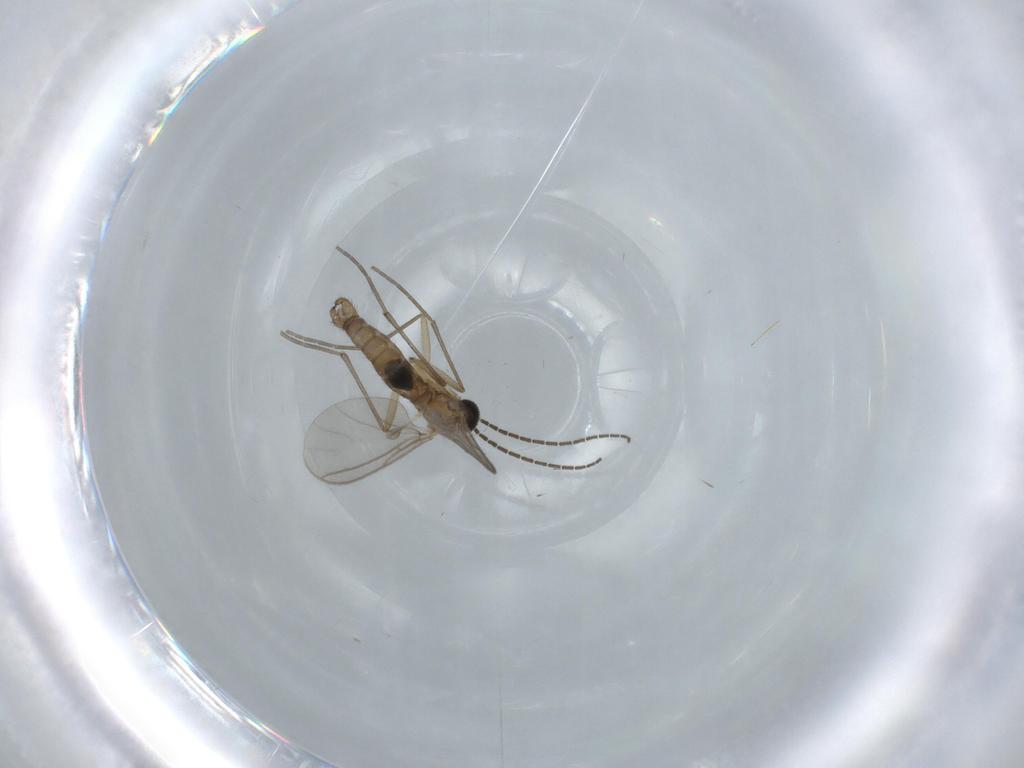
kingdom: Animalia
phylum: Arthropoda
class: Insecta
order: Diptera
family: Sciaridae
